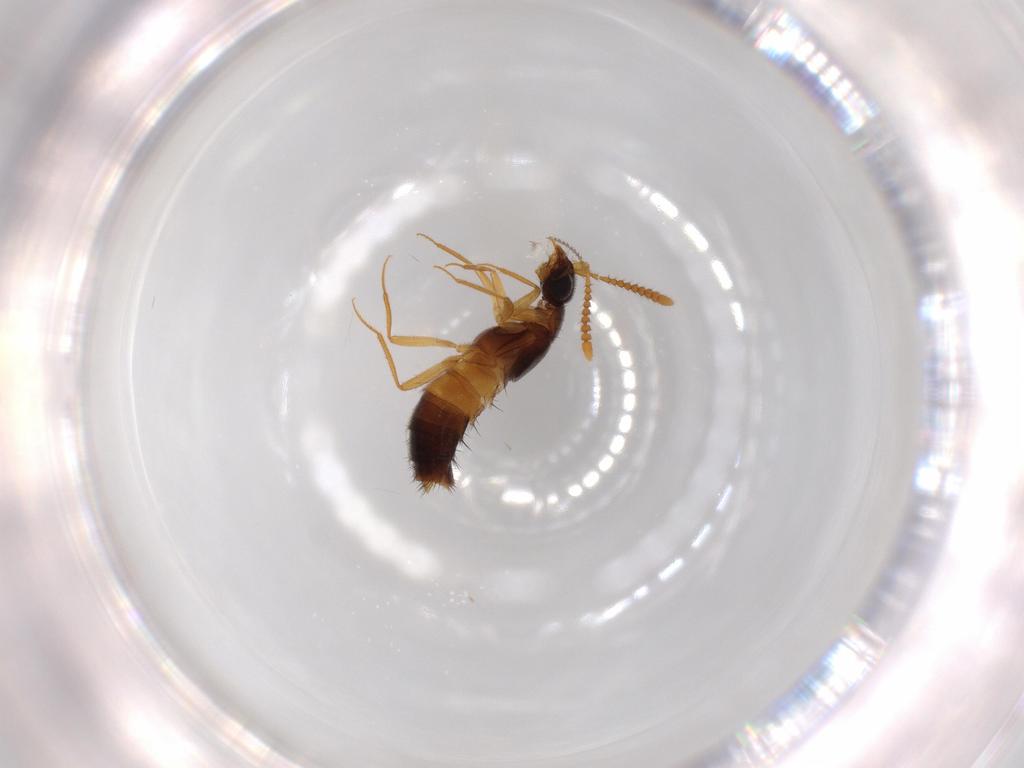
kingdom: Animalia
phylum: Arthropoda
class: Insecta
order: Coleoptera
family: Staphylinidae
